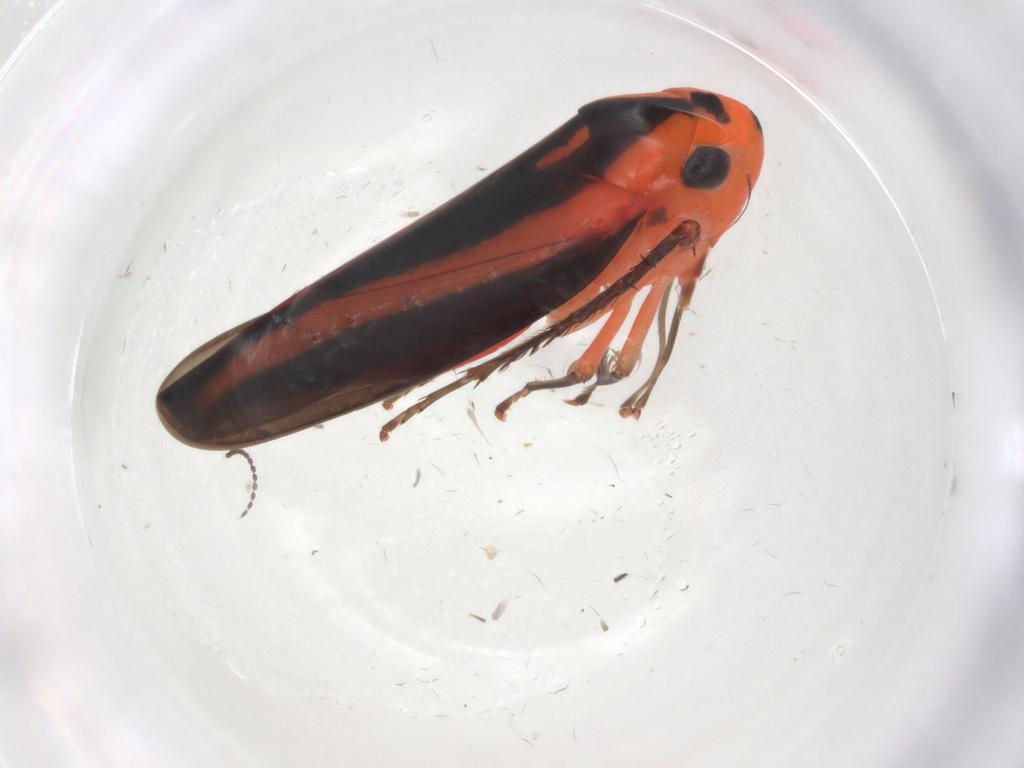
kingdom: Animalia
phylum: Arthropoda
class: Insecta
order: Hemiptera
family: Cicadellidae
